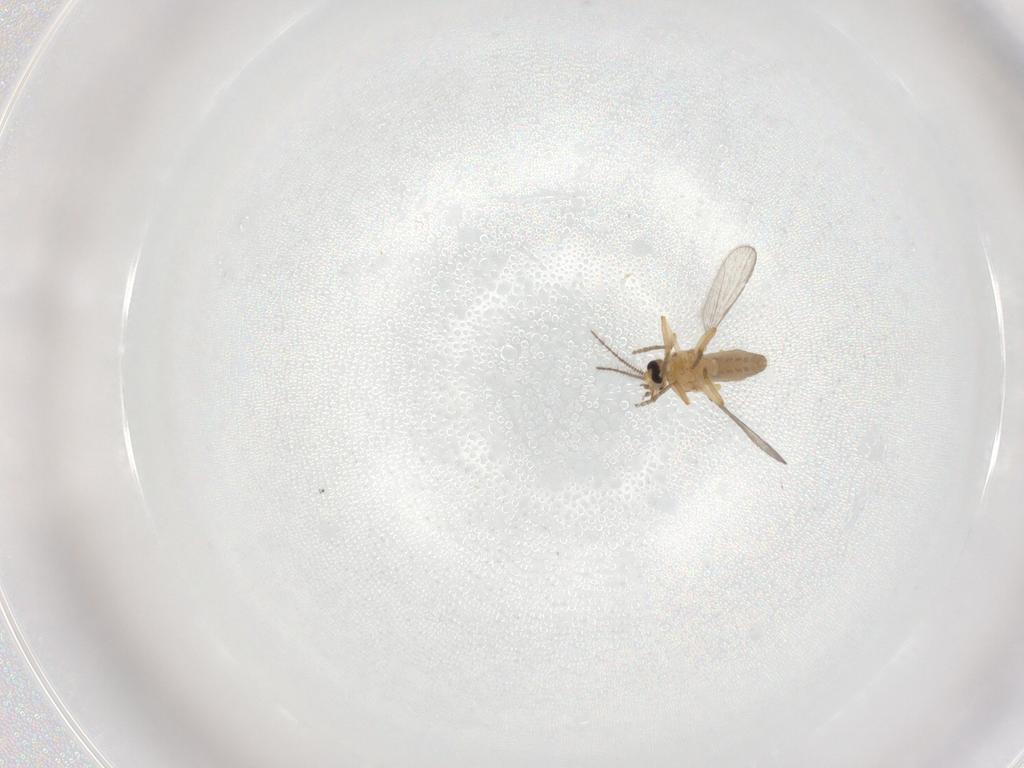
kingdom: Animalia
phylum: Arthropoda
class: Insecta
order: Diptera
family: Ceratopogonidae
